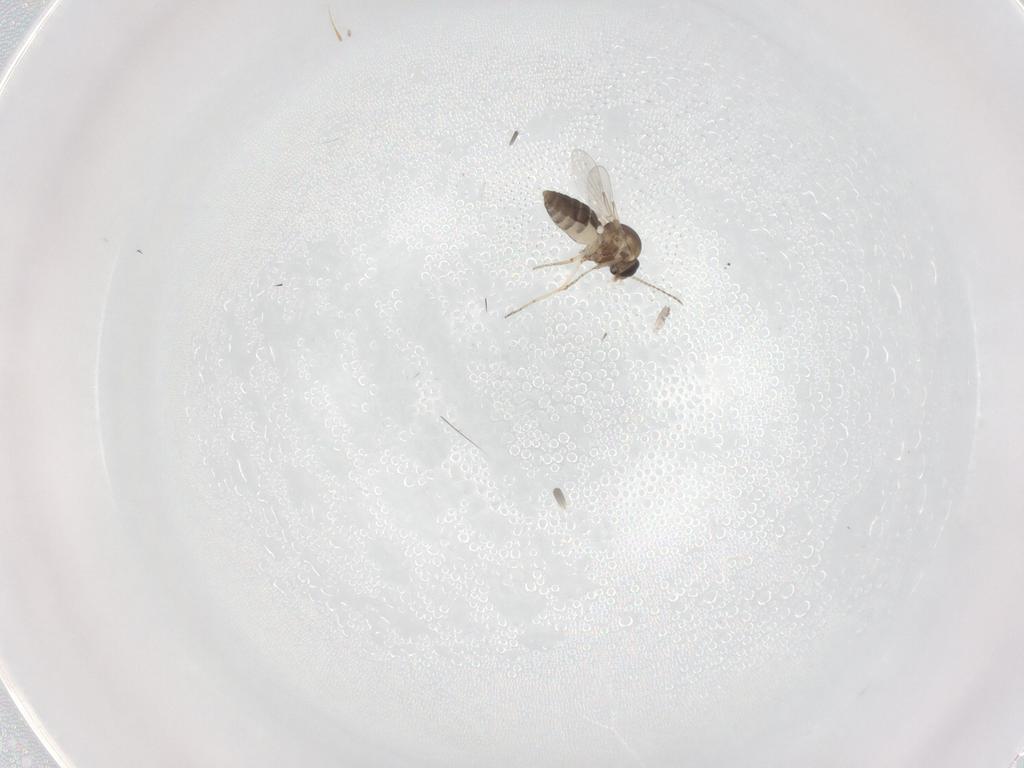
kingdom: Animalia
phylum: Arthropoda
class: Insecta
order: Diptera
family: Ceratopogonidae
